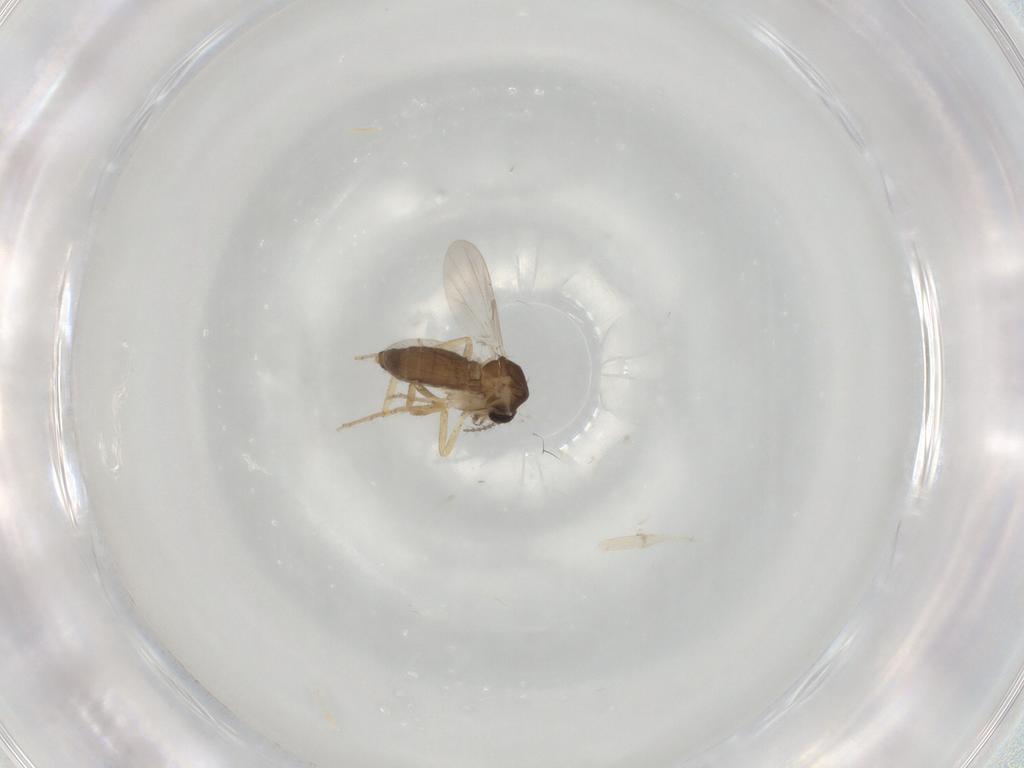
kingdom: Animalia
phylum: Arthropoda
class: Insecta
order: Diptera
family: Ceratopogonidae
